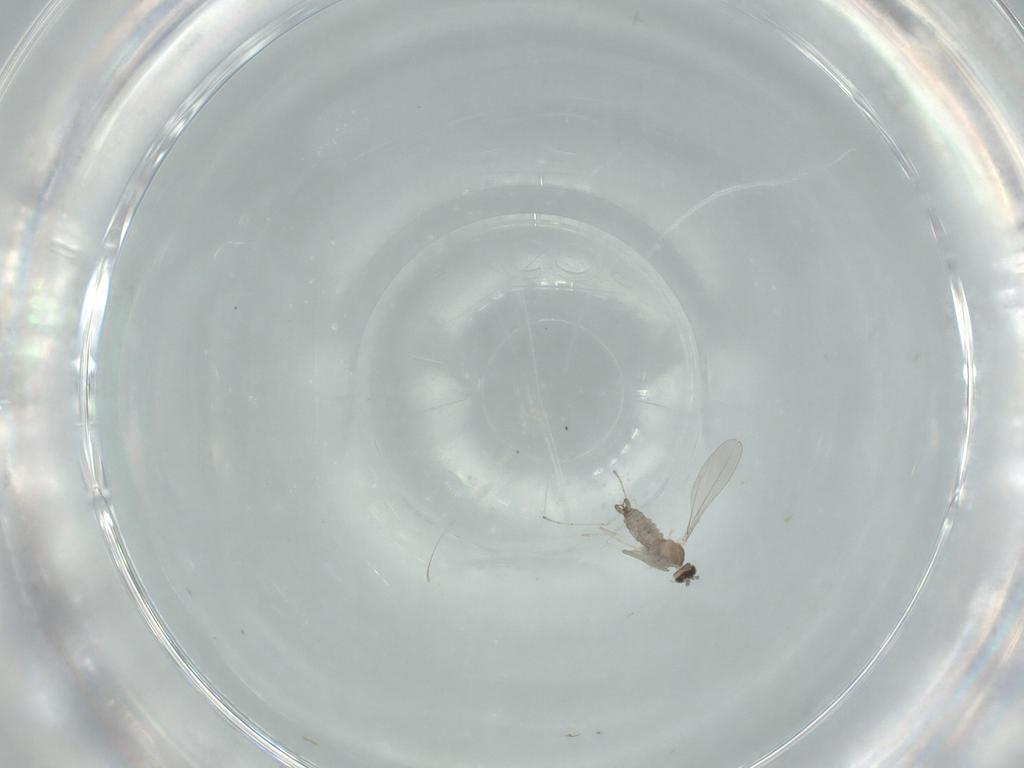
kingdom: Animalia
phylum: Arthropoda
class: Insecta
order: Diptera
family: Cecidomyiidae
